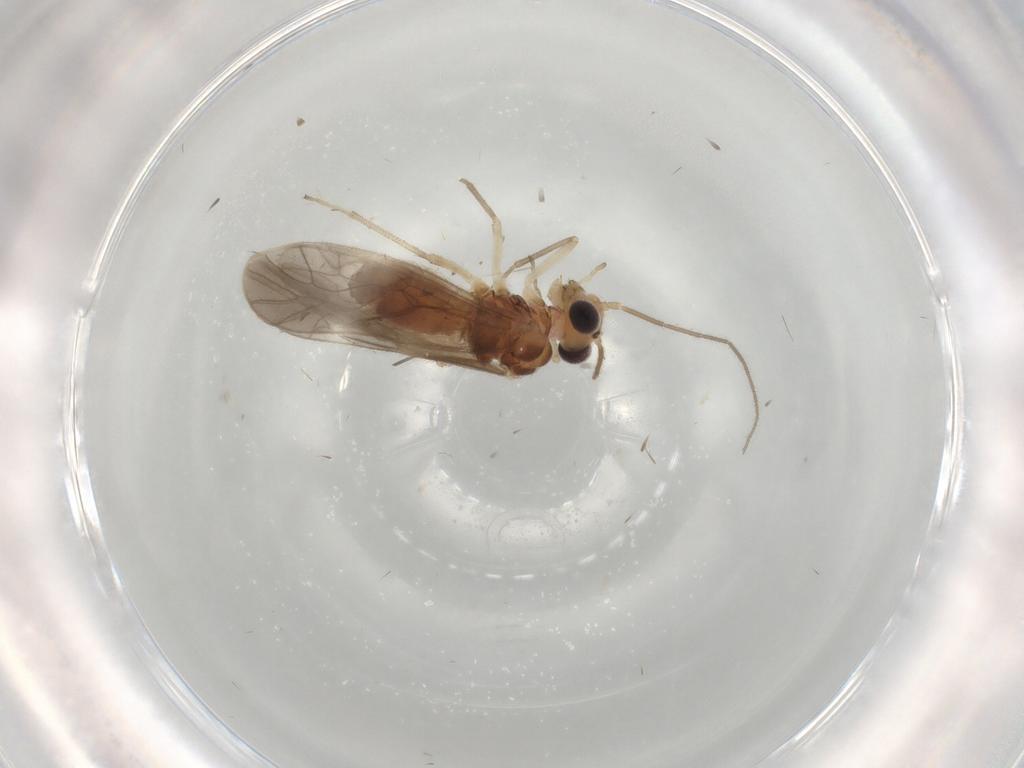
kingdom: Animalia
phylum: Arthropoda
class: Insecta
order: Psocodea
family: Caeciliusidae
